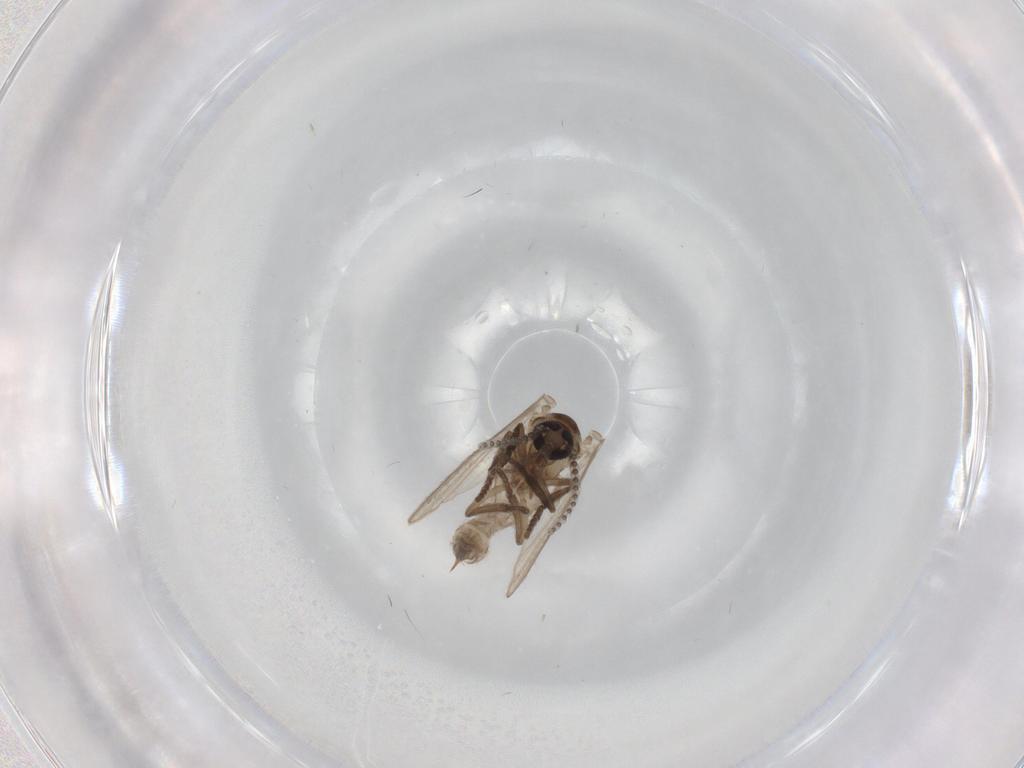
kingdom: Animalia
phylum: Arthropoda
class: Insecta
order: Diptera
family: Psychodidae
